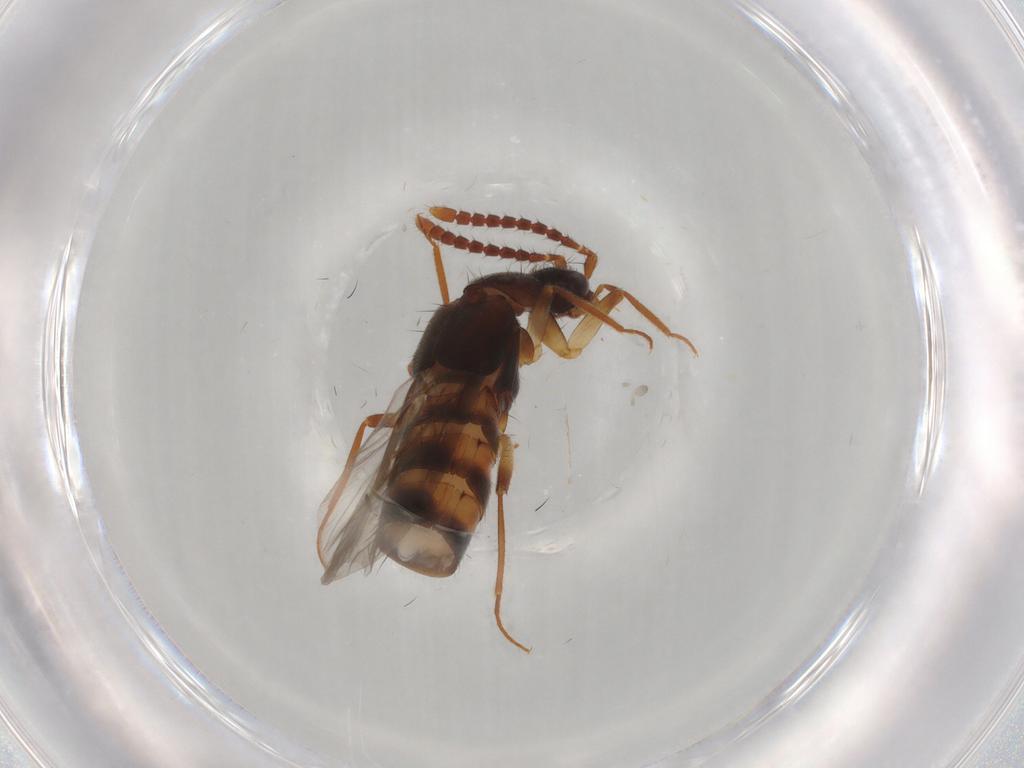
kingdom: Animalia
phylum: Arthropoda
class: Insecta
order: Coleoptera
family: Staphylinidae
